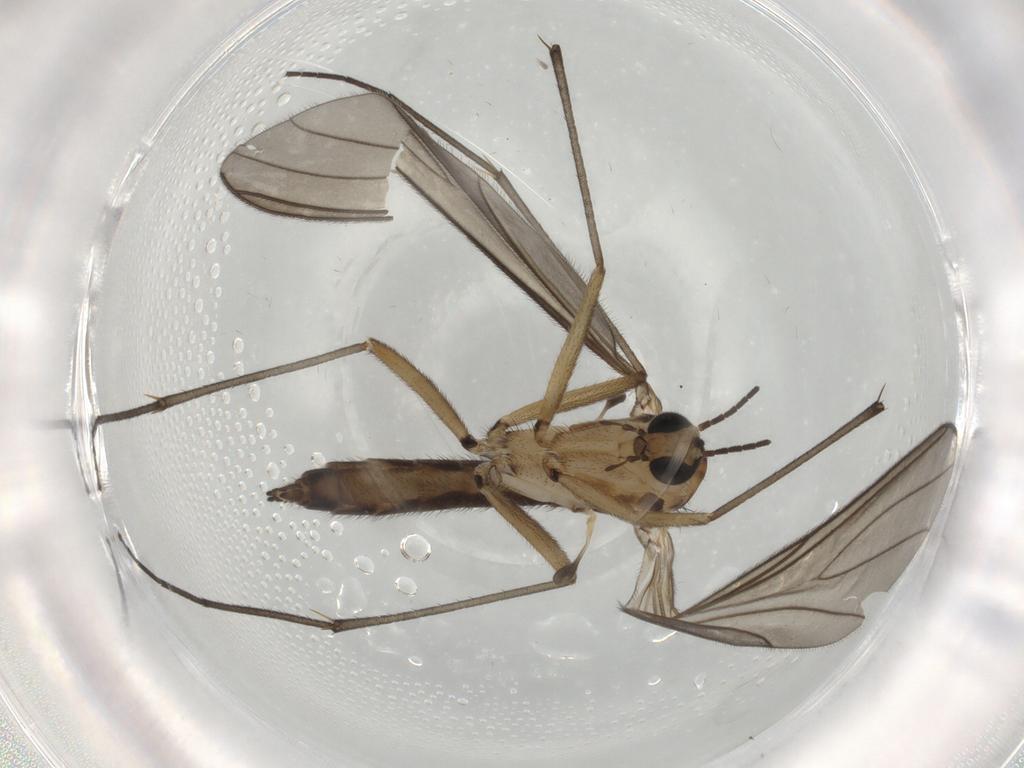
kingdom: Animalia
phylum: Arthropoda
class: Insecta
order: Diptera
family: Sciaridae
